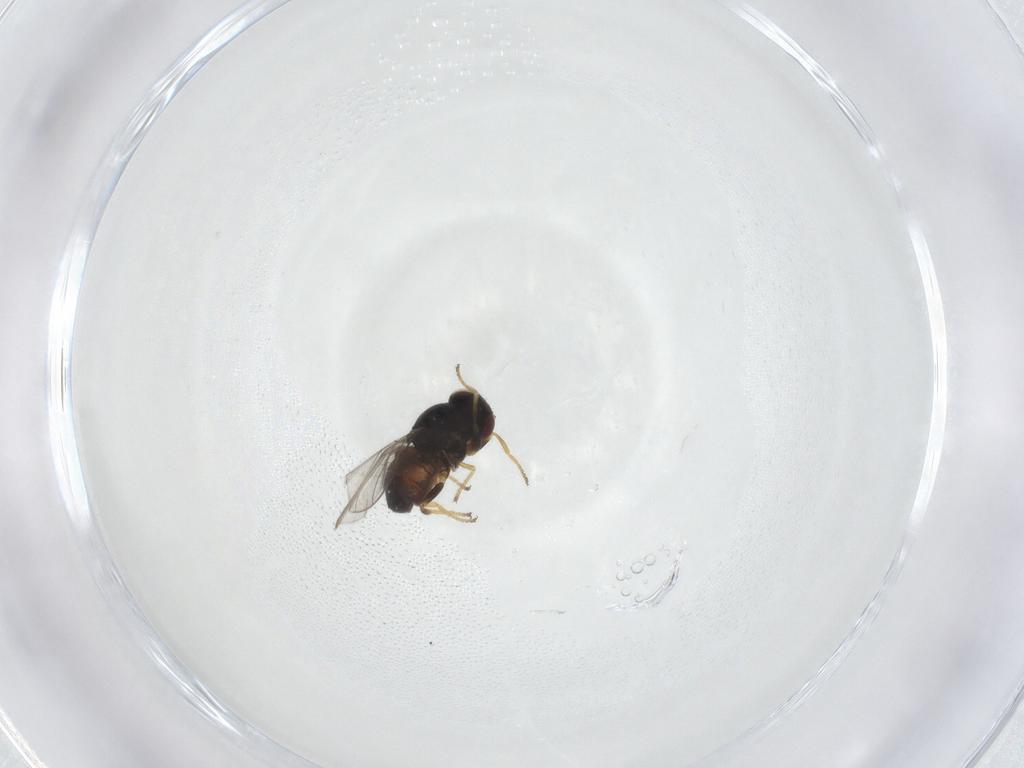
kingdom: Animalia
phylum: Arthropoda
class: Insecta
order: Diptera
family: Chloropidae
